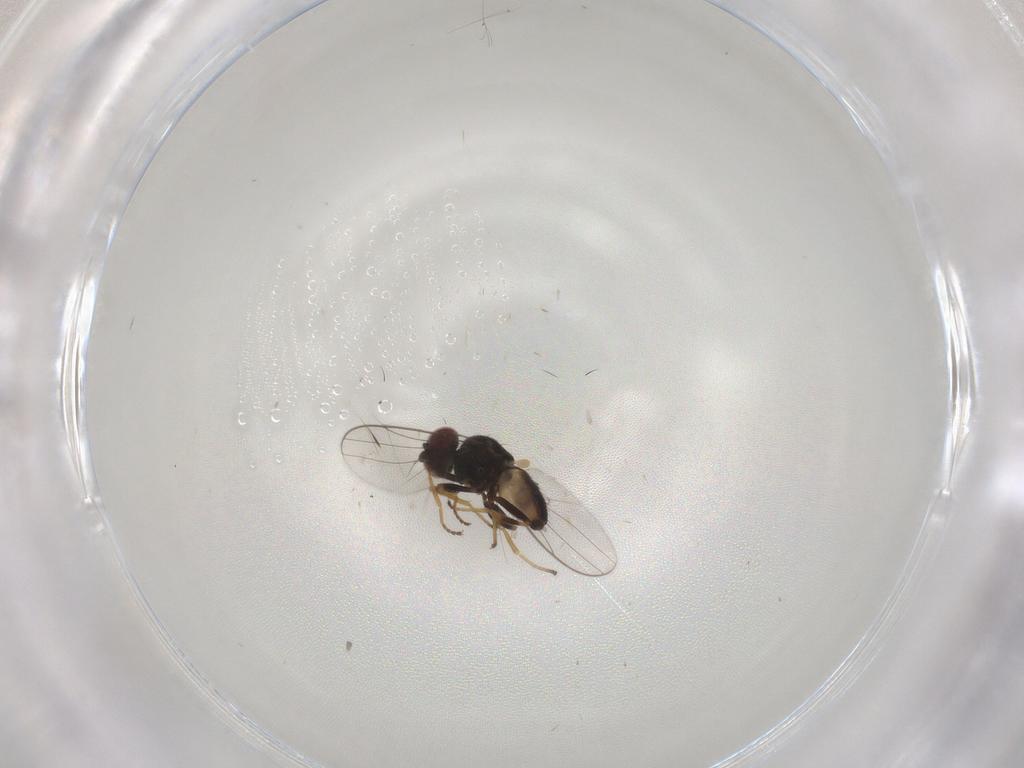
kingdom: Animalia
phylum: Arthropoda
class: Insecta
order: Diptera
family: Chloropidae
